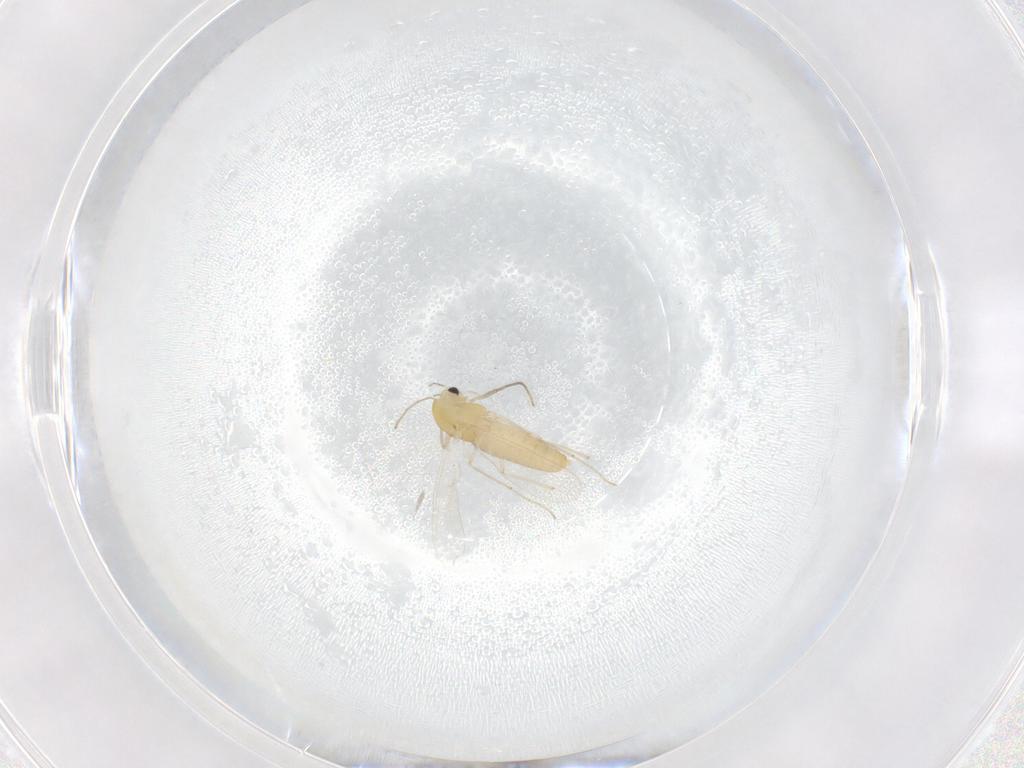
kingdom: Animalia
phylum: Arthropoda
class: Insecta
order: Diptera
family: Chironomidae
